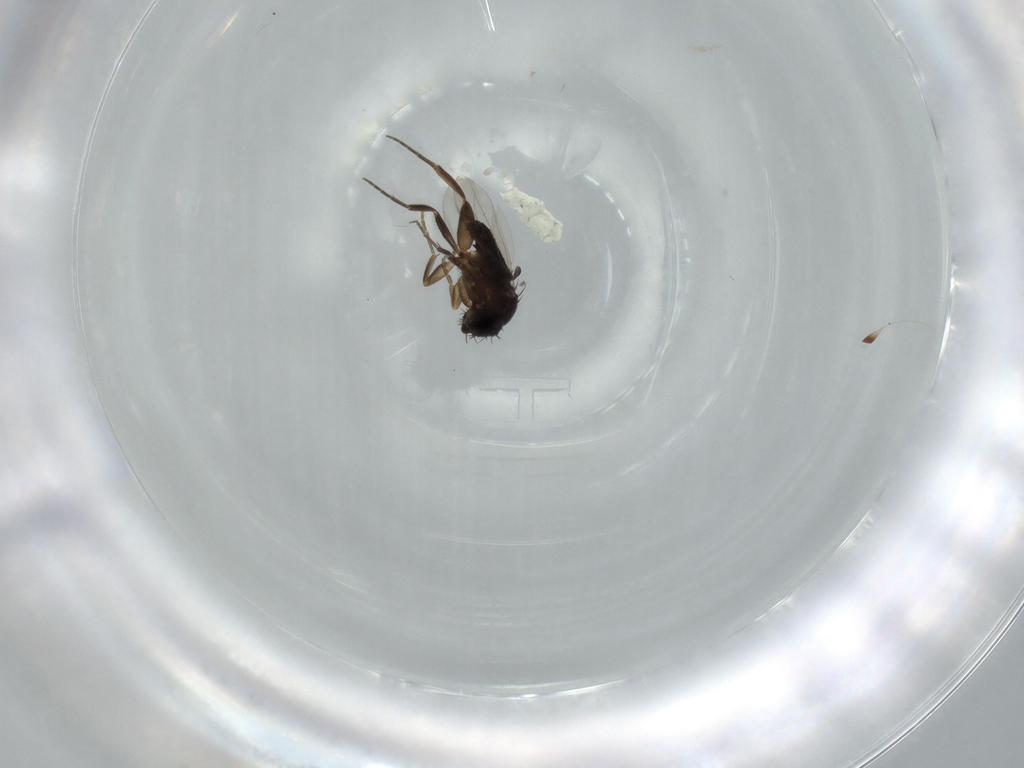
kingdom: Animalia
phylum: Arthropoda
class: Insecta
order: Diptera
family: Phoridae
